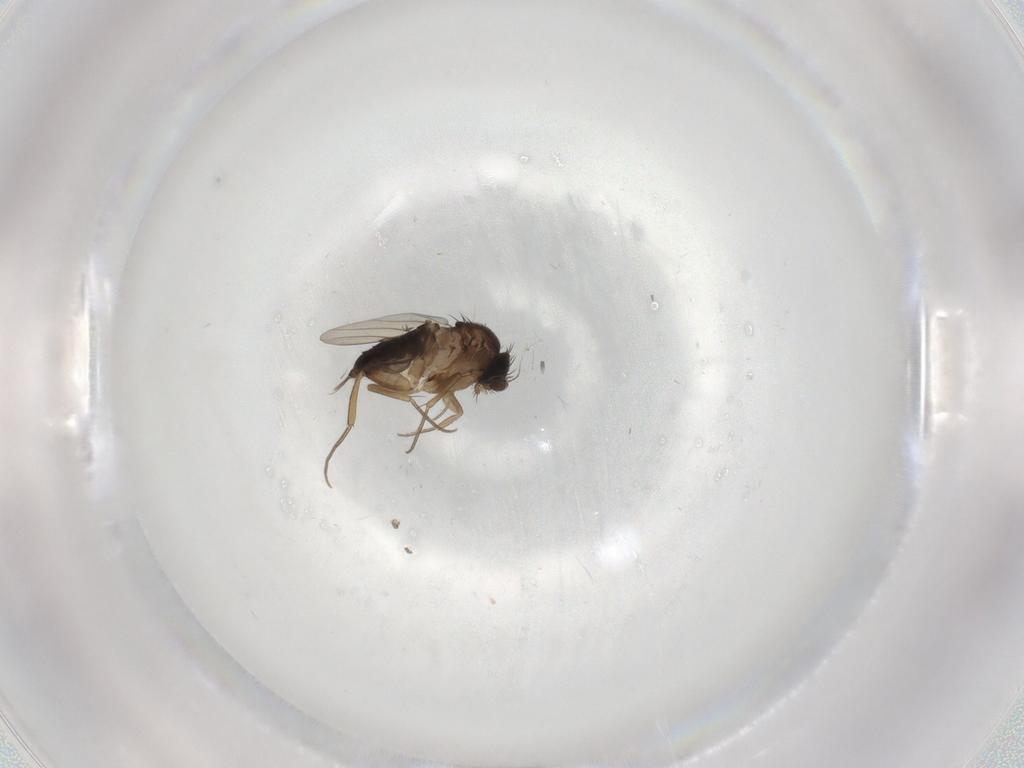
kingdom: Animalia
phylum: Arthropoda
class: Insecta
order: Diptera
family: Phoridae
